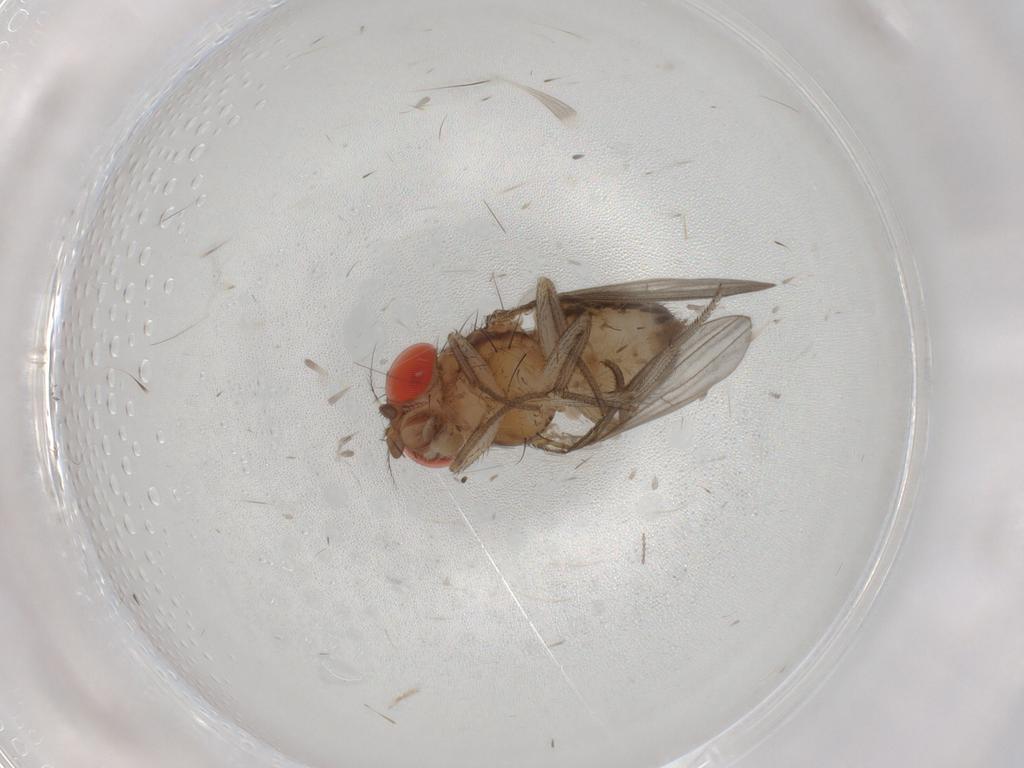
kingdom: Animalia
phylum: Arthropoda
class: Insecta
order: Diptera
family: Drosophilidae
